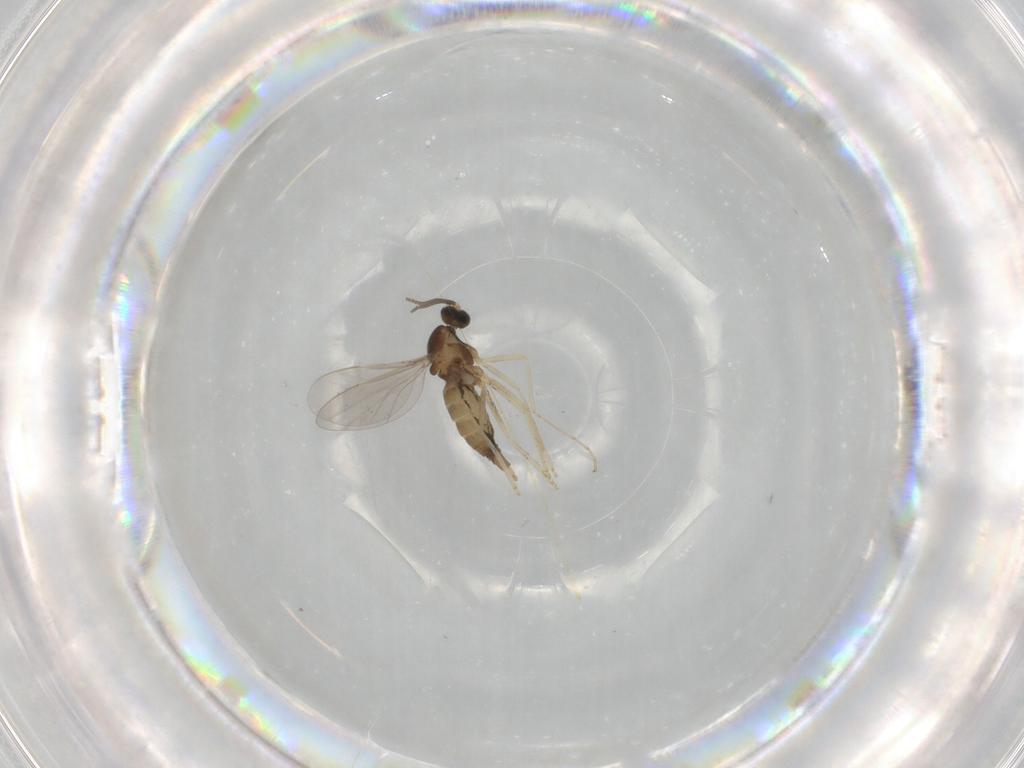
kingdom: Animalia
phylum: Arthropoda
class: Insecta
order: Diptera
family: Cecidomyiidae
